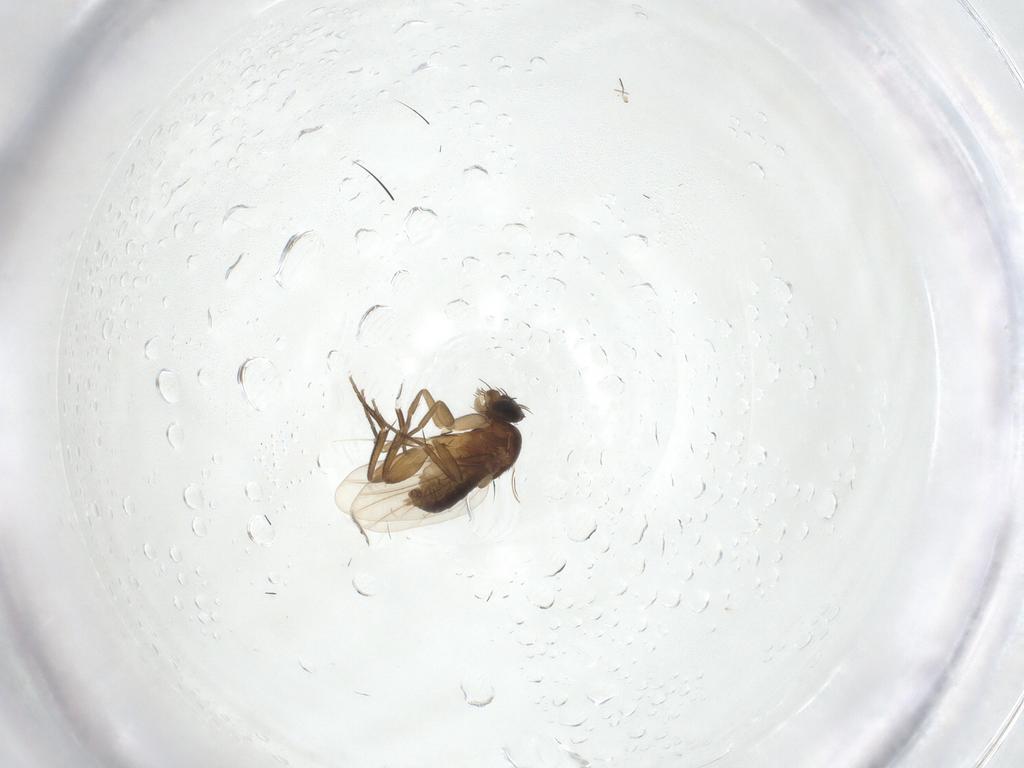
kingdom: Animalia
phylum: Arthropoda
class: Insecta
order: Diptera
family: Phoridae
